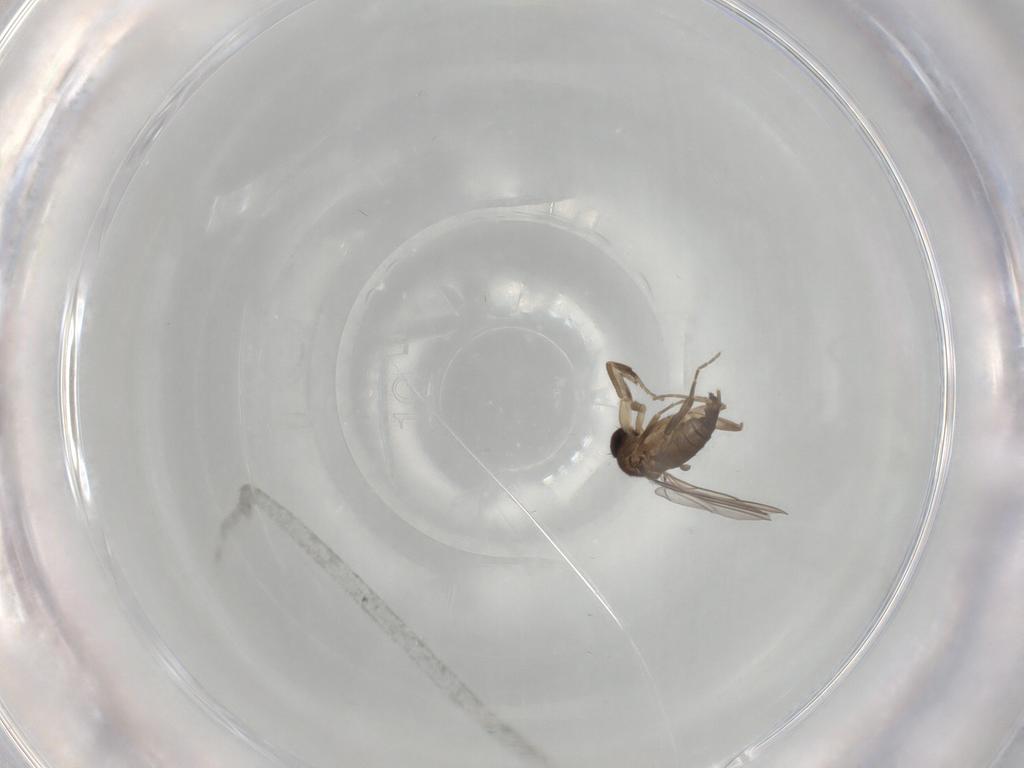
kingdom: Animalia
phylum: Arthropoda
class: Insecta
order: Diptera
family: Phoridae
